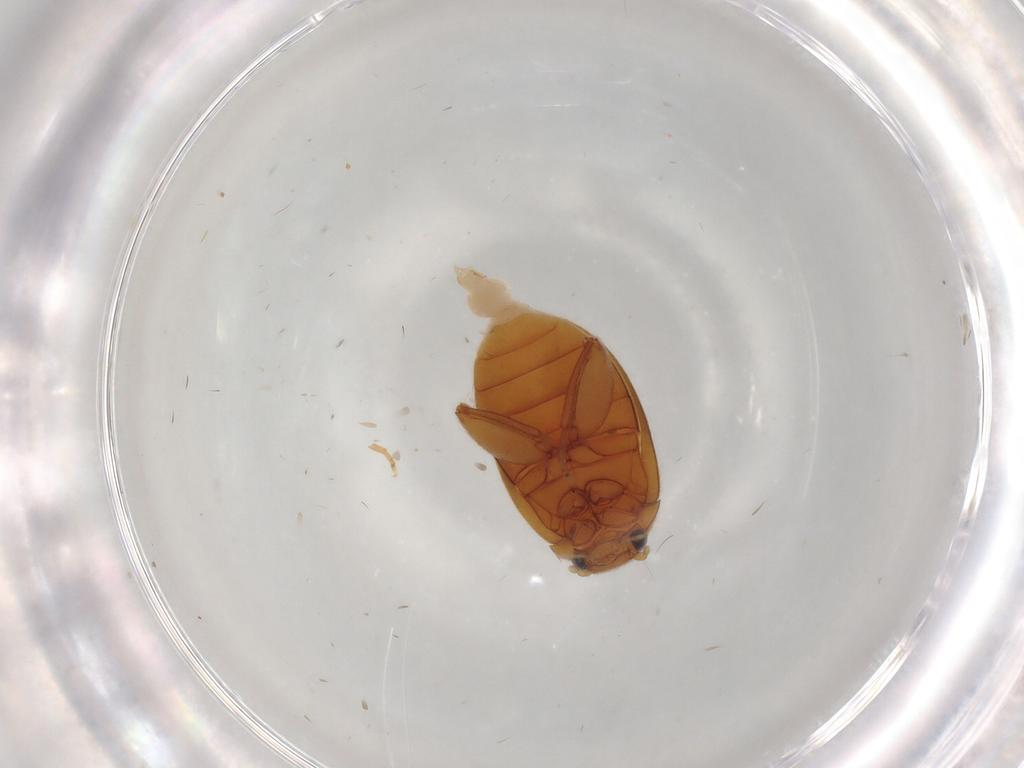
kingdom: Animalia
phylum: Arthropoda
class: Insecta
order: Coleoptera
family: Scirtidae
